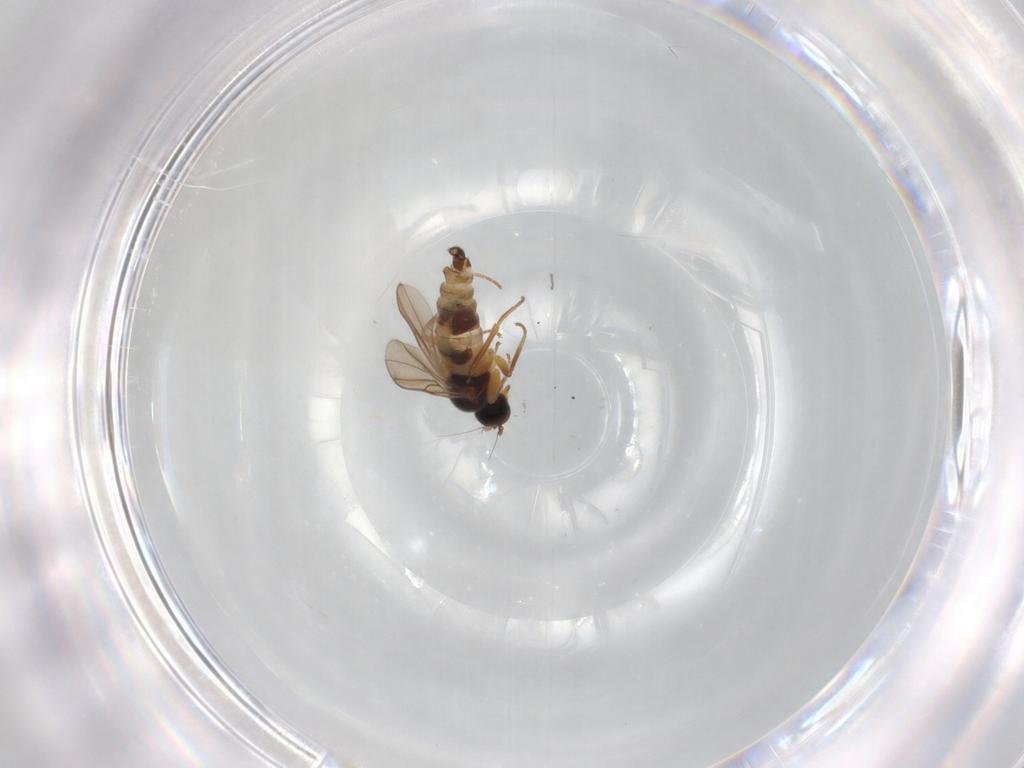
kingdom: Animalia
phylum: Arthropoda
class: Insecta
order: Diptera
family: Hybotidae
